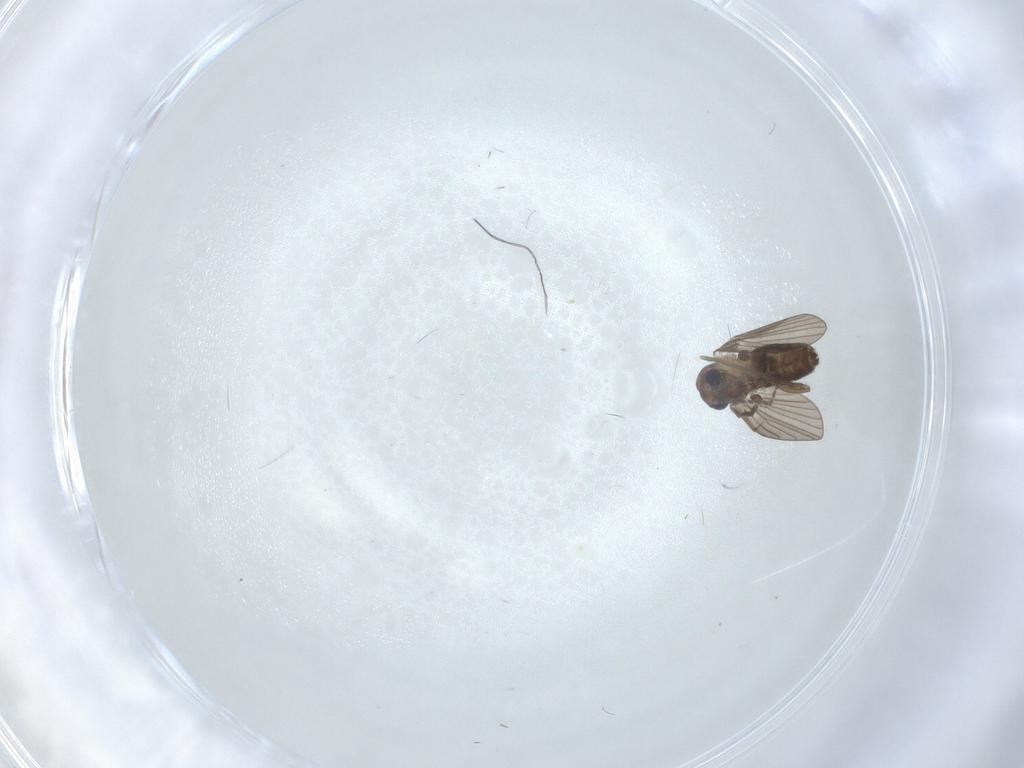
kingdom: Animalia
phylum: Arthropoda
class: Insecta
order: Diptera
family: Psychodidae
